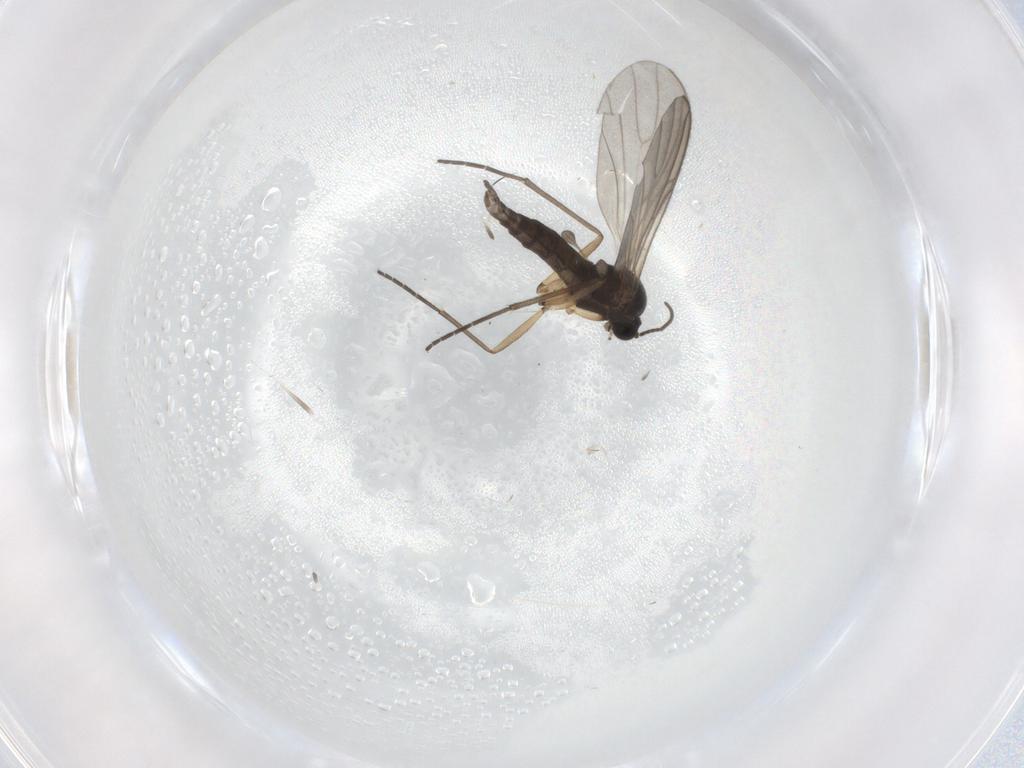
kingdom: Animalia
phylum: Arthropoda
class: Insecta
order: Diptera
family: Sciaridae
